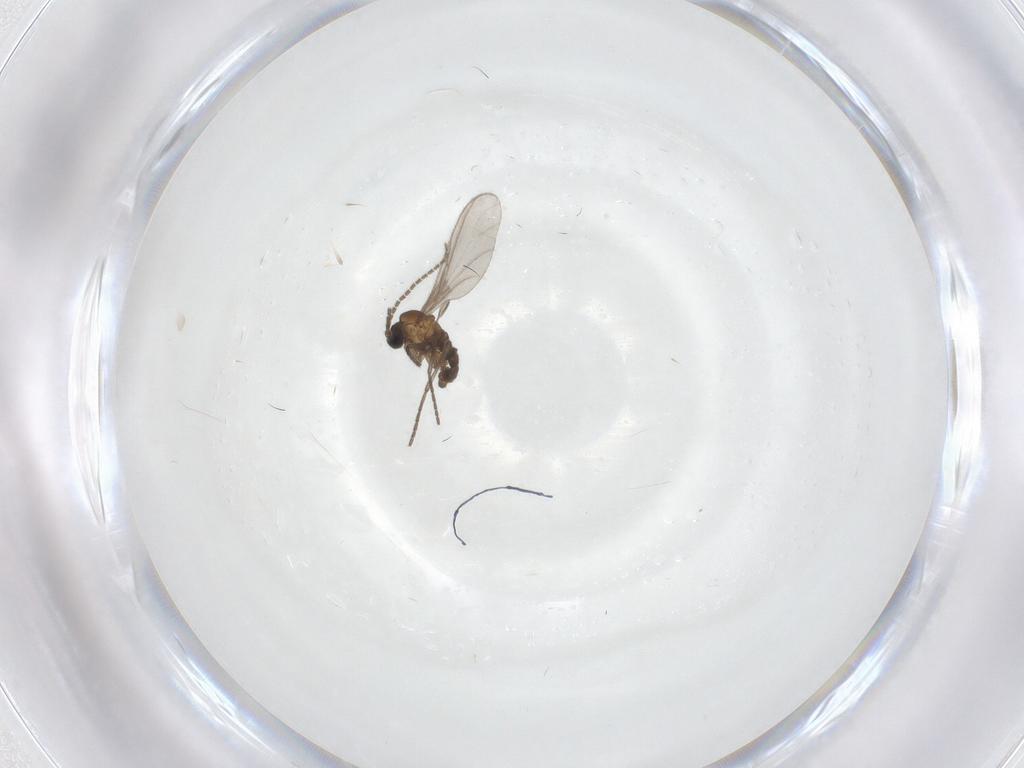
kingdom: Animalia
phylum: Arthropoda
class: Insecta
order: Diptera
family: Sciaridae
